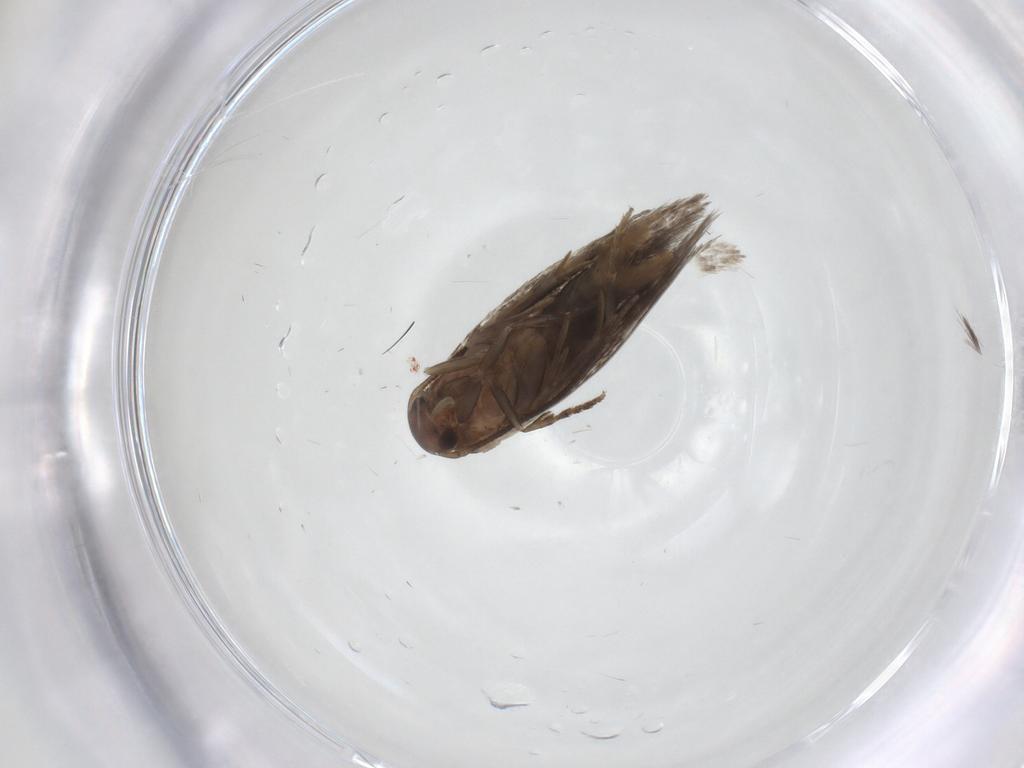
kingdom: Animalia
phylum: Arthropoda
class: Insecta
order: Lepidoptera
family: Elachistidae
